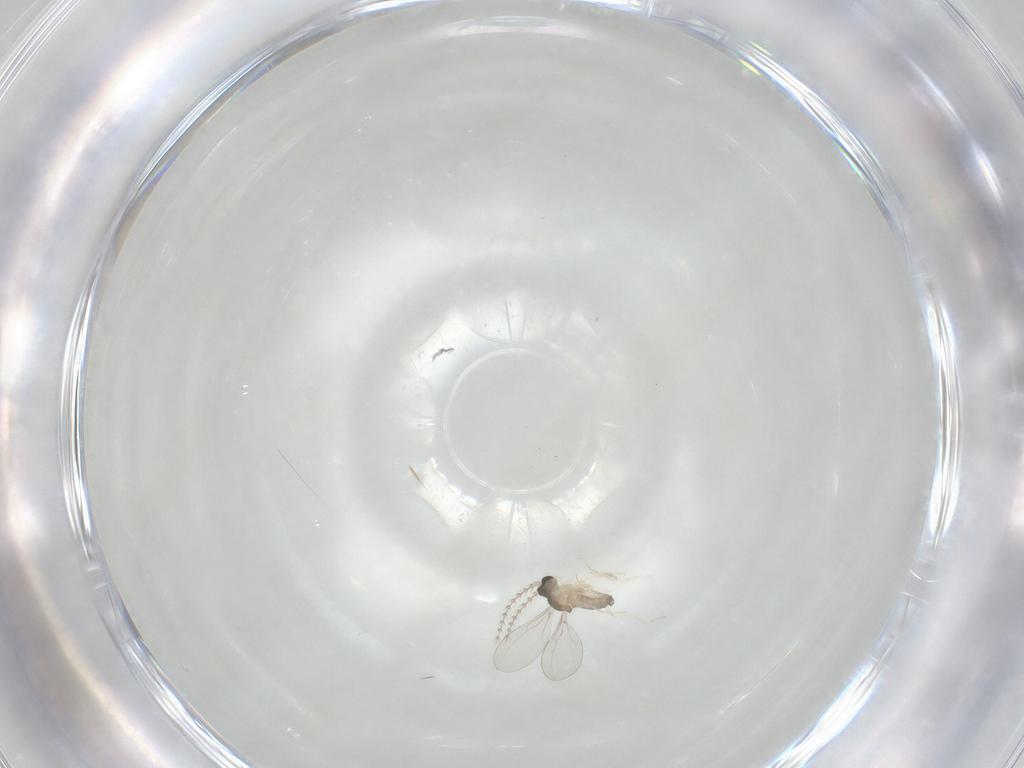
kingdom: Animalia
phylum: Arthropoda
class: Insecta
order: Diptera
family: Cecidomyiidae
